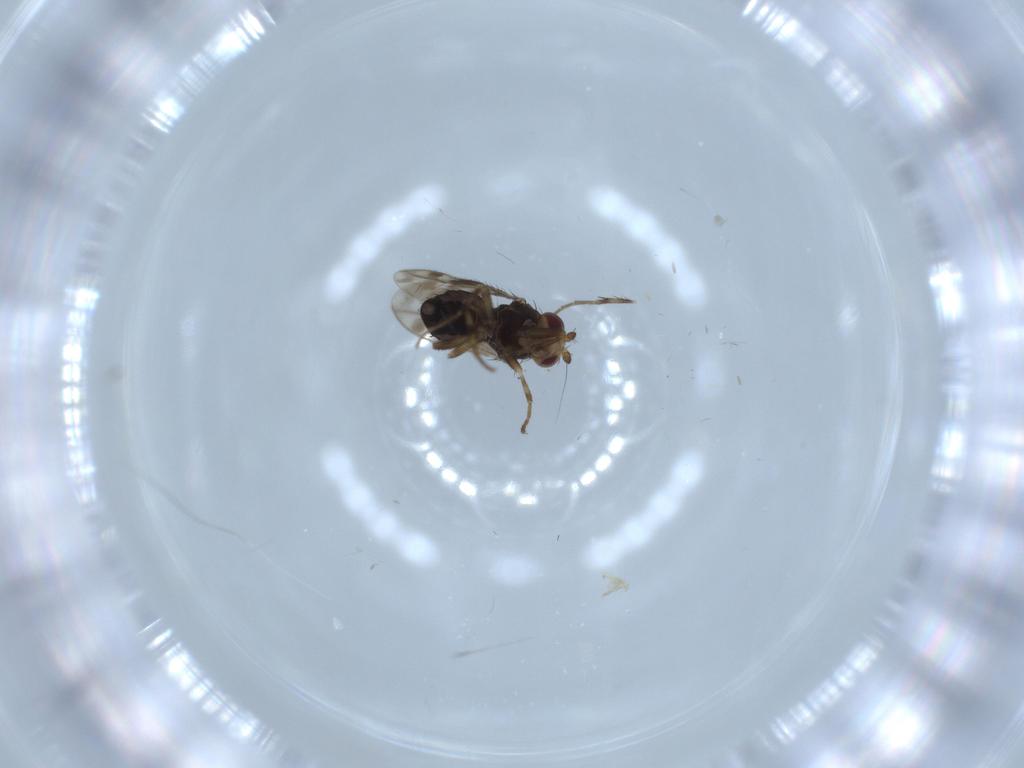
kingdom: Animalia
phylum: Arthropoda
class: Insecta
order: Diptera
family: Sphaeroceridae
